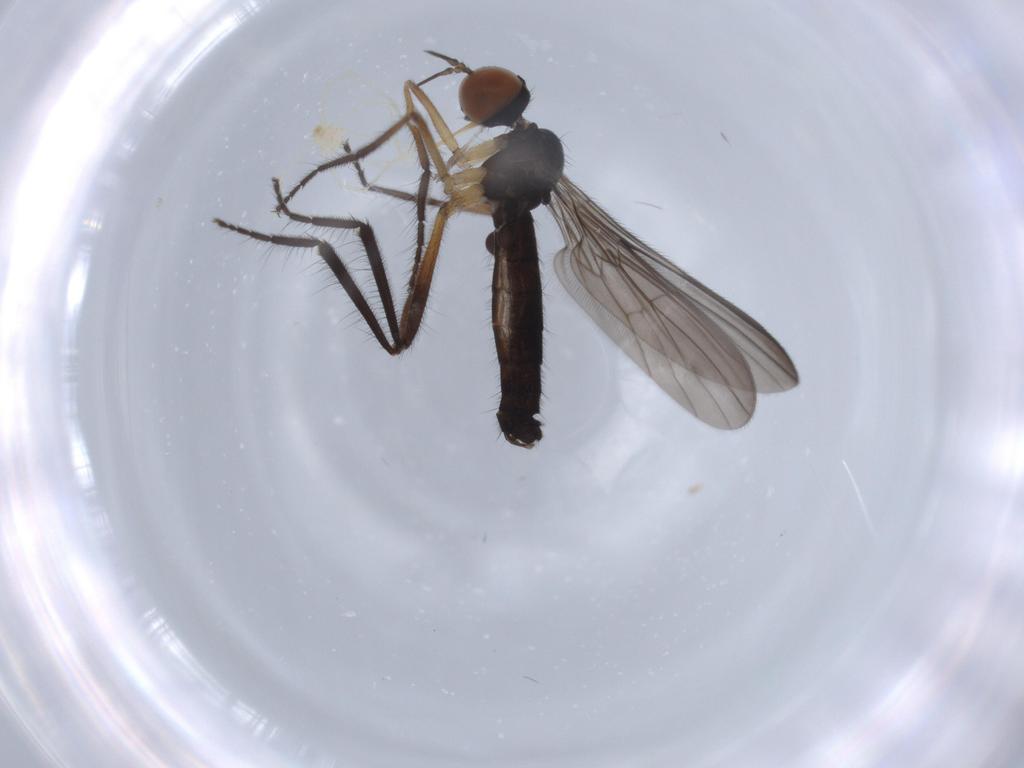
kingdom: Animalia
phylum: Arthropoda
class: Insecta
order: Diptera
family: Empididae
